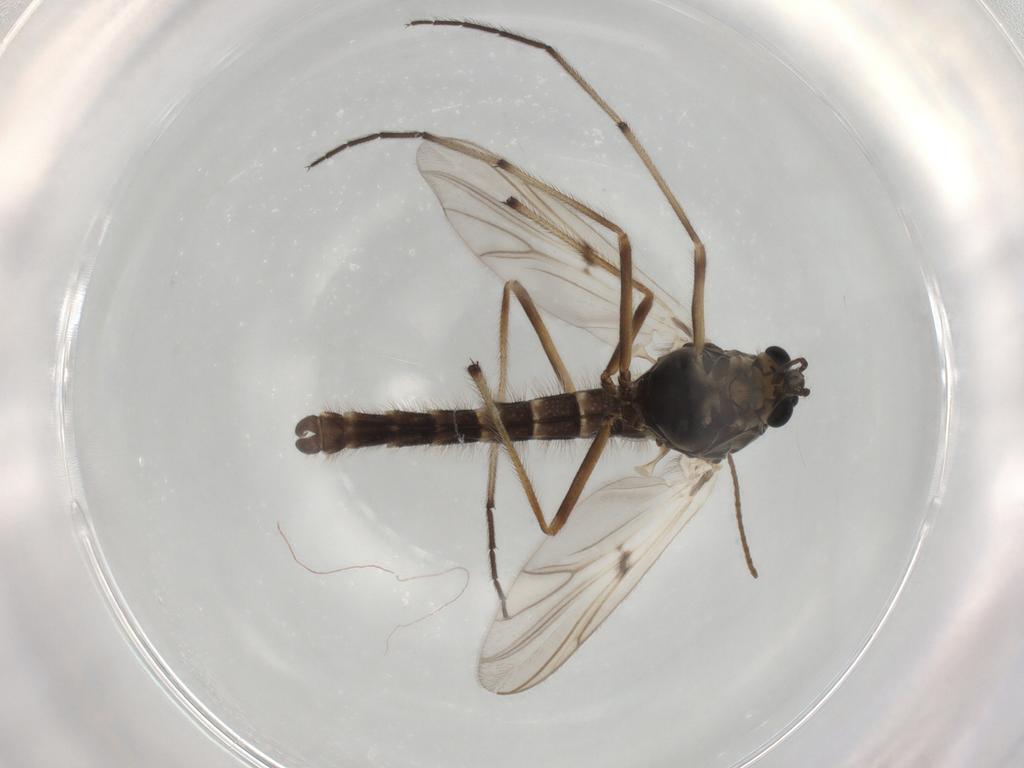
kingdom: Animalia
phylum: Arthropoda
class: Insecta
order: Diptera
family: Chironomidae
